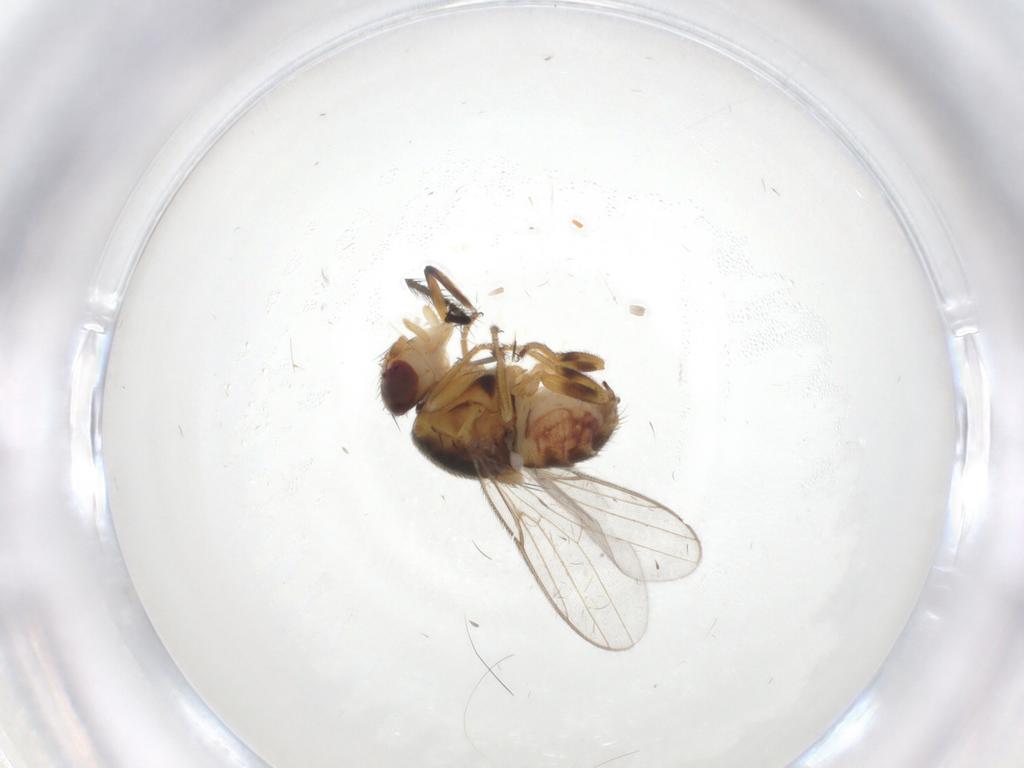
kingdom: Animalia
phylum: Arthropoda
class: Insecta
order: Diptera
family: Chloropidae
